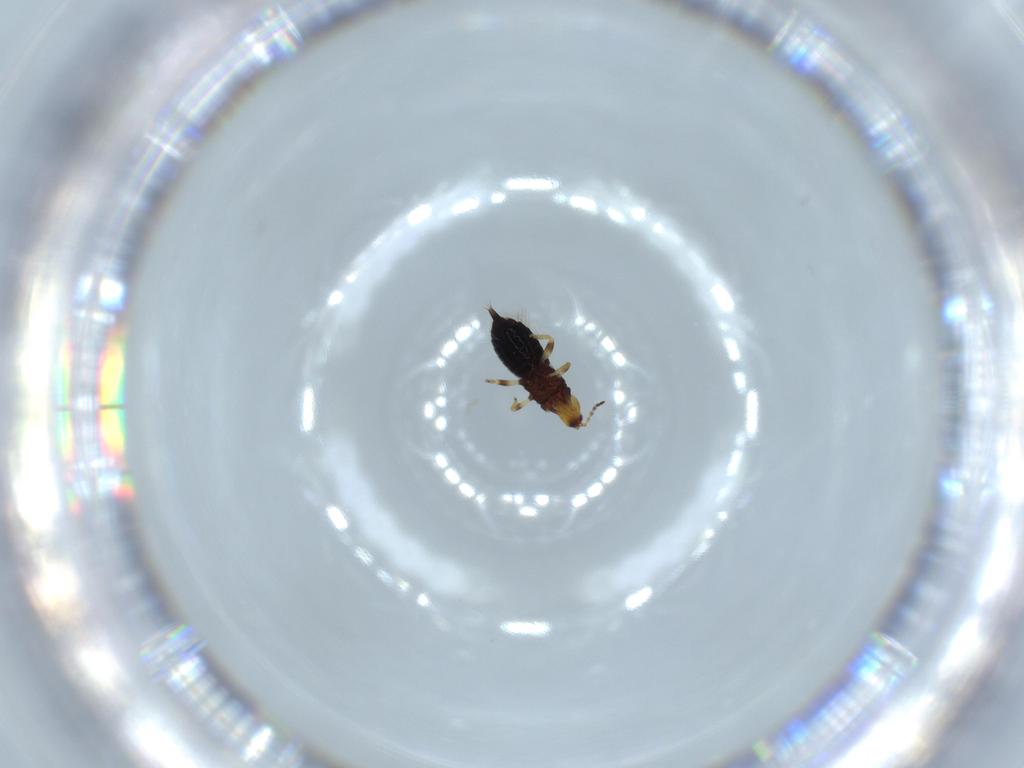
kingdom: Animalia
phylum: Arthropoda
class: Insecta
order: Thysanoptera
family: Phlaeothripidae
